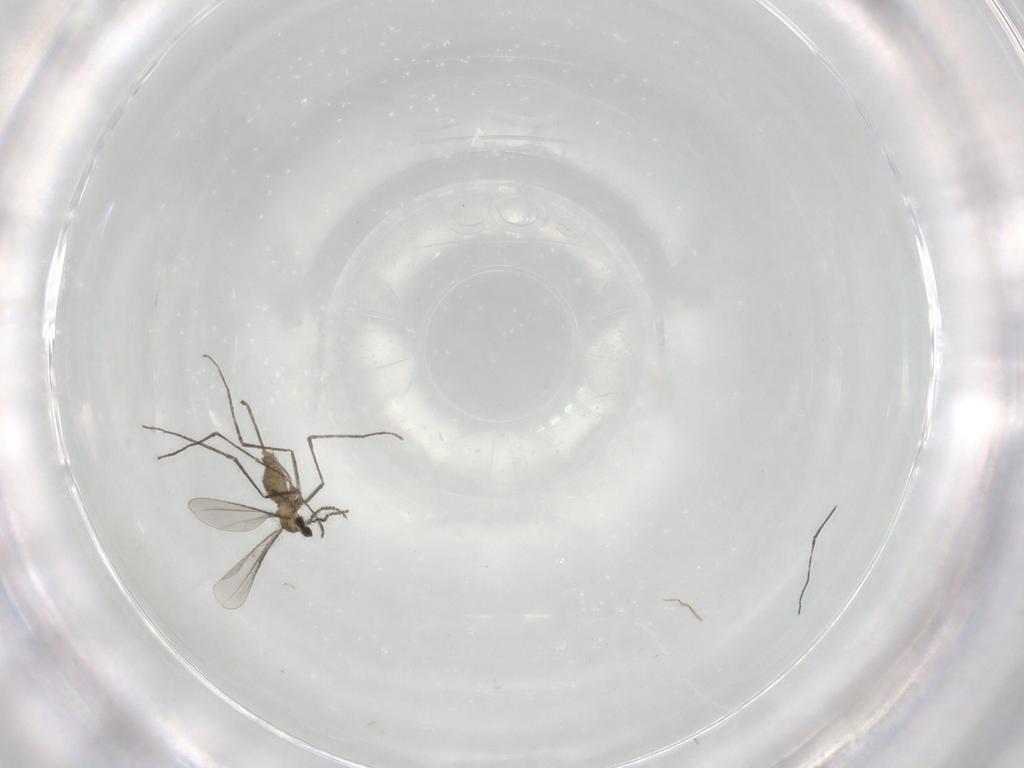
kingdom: Animalia
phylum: Arthropoda
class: Insecta
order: Diptera
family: Cecidomyiidae
